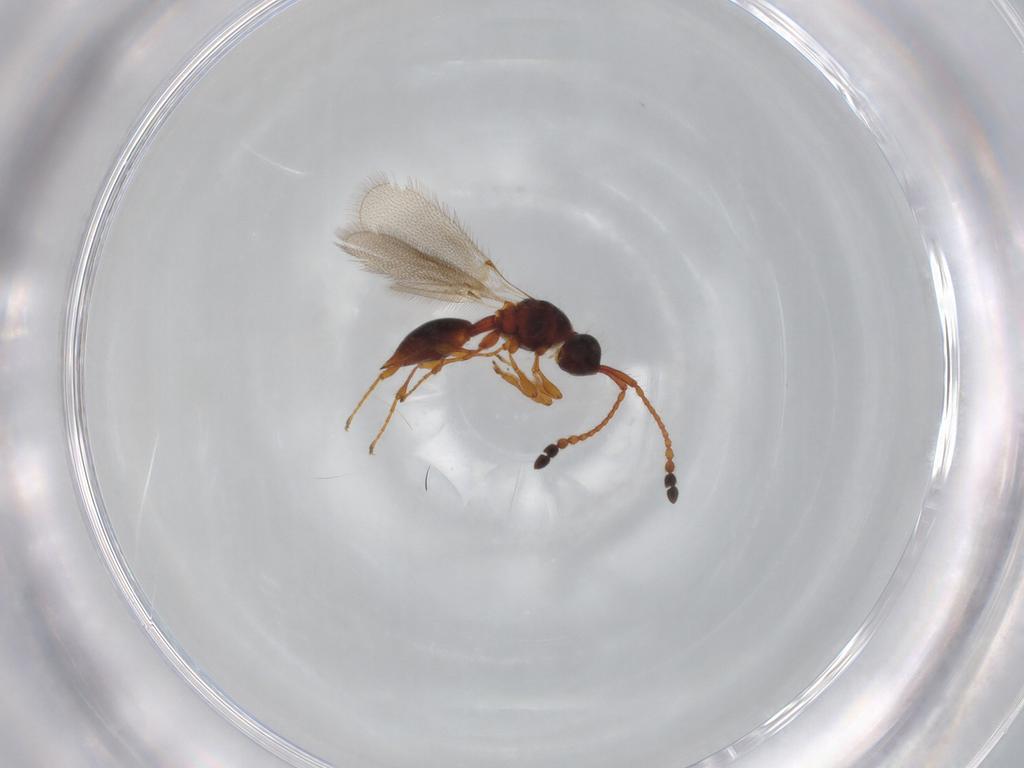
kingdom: Animalia
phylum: Arthropoda
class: Insecta
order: Hymenoptera
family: Diapriidae
